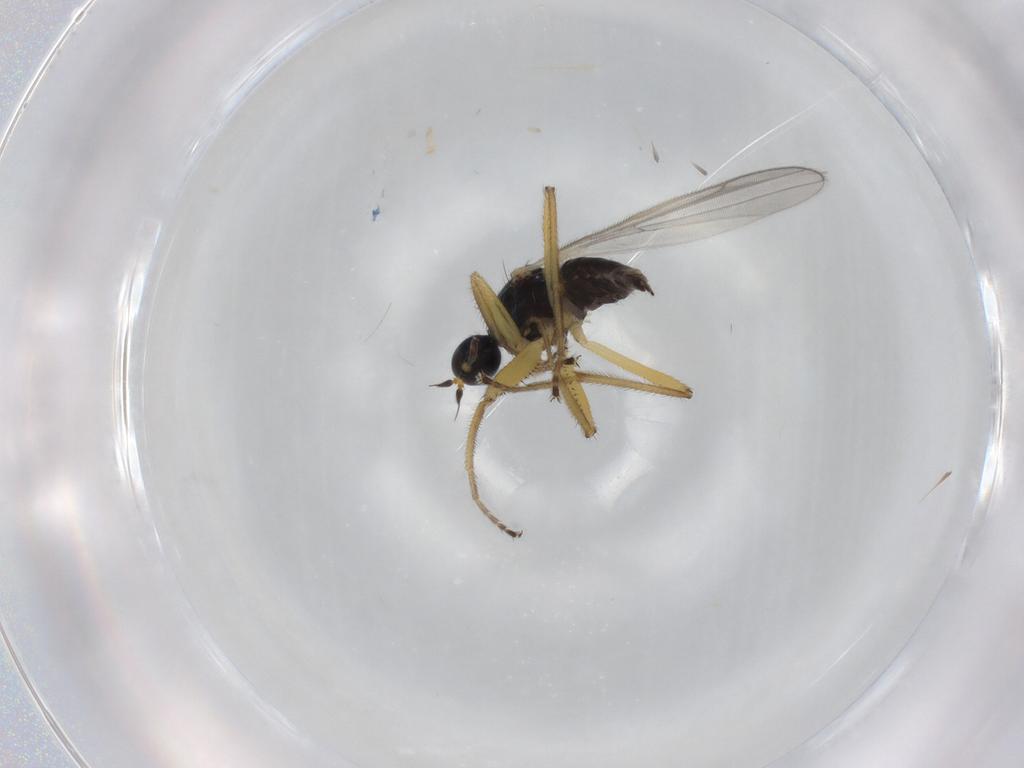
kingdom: Animalia
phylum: Arthropoda
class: Insecta
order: Diptera
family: Hybotidae
